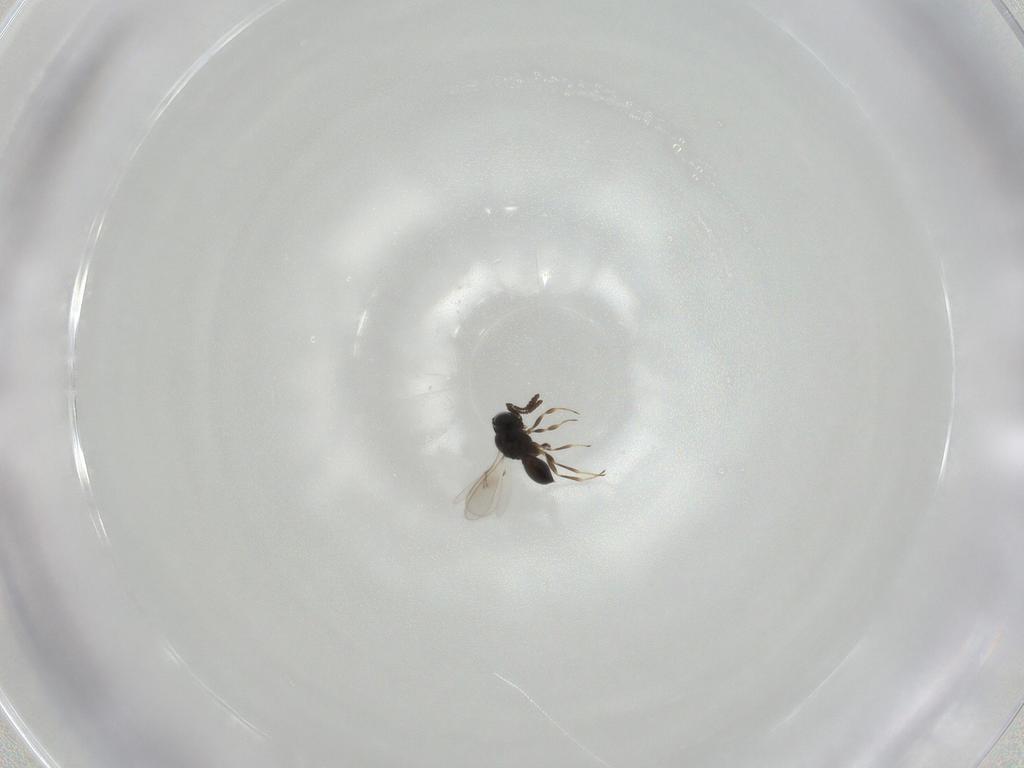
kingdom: Animalia
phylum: Arthropoda
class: Insecta
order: Hymenoptera
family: Scelionidae
